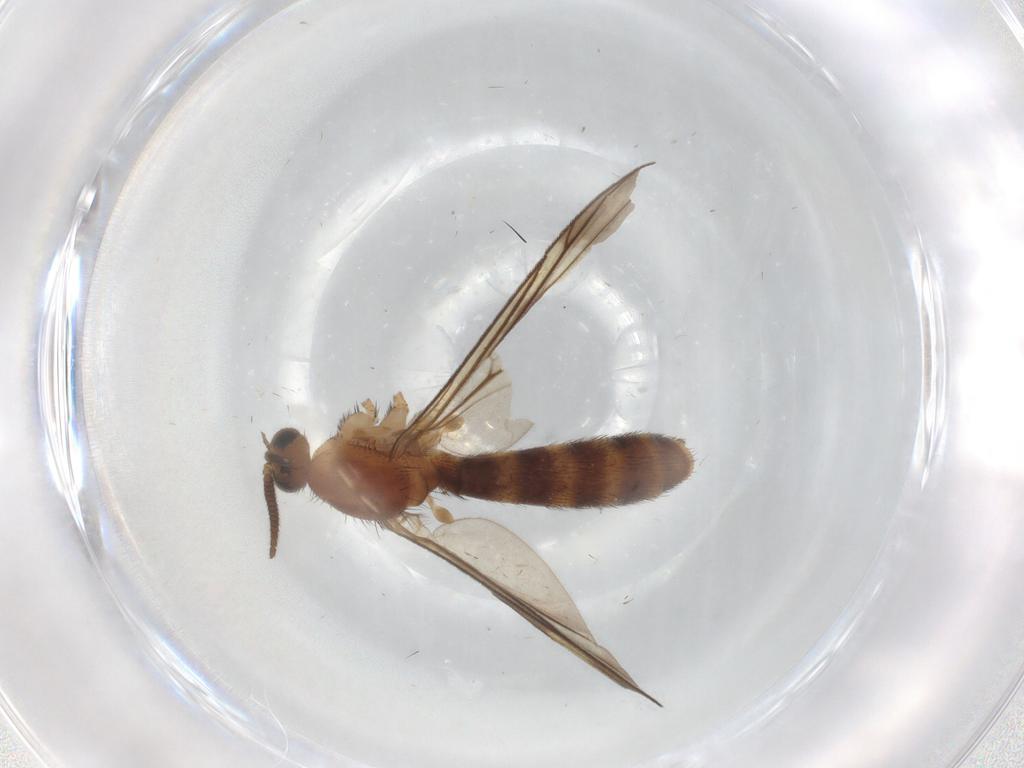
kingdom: Animalia
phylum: Arthropoda
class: Insecta
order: Diptera
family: Keroplatidae
